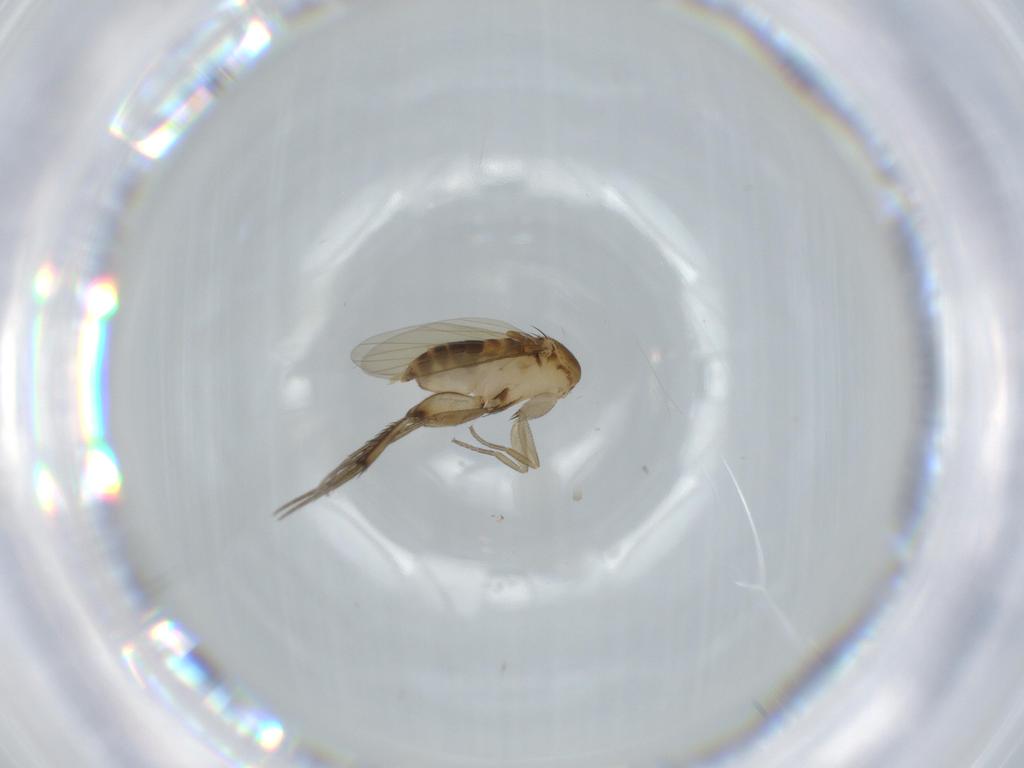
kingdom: Animalia
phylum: Arthropoda
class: Insecta
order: Diptera
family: Phoridae
